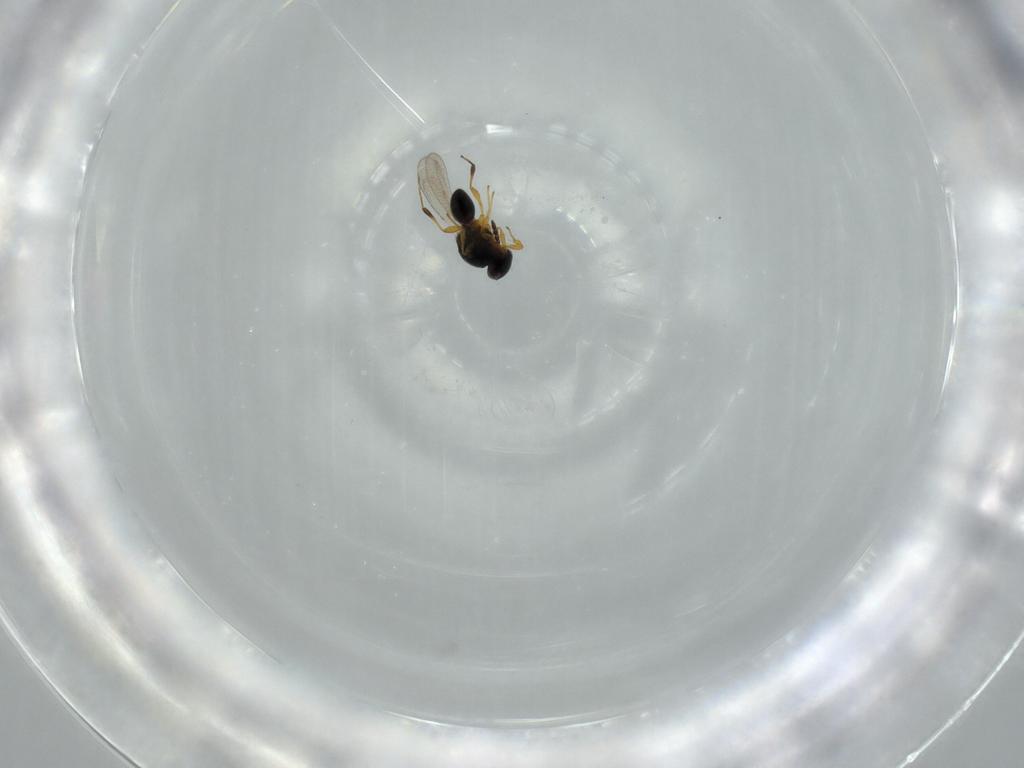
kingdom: Animalia
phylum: Arthropoda
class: Insecta
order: Hymenoptera
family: Platygastridae
